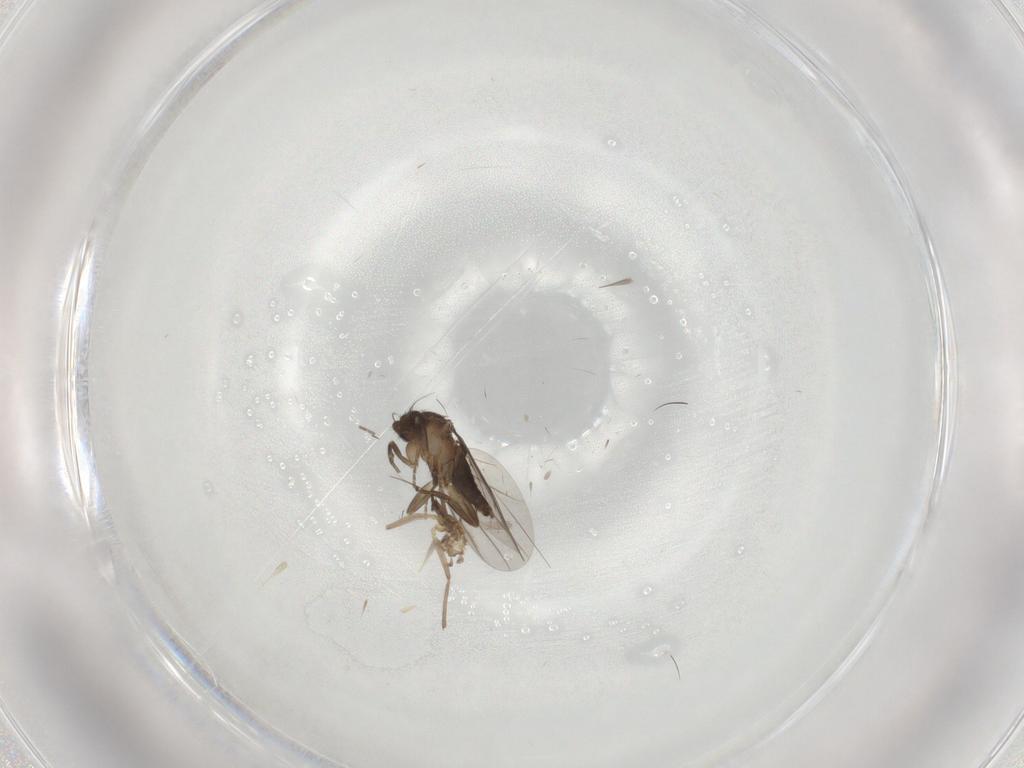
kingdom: Animalia
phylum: Arthropoda
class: Insecta
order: Diptera
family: Chironomidae
